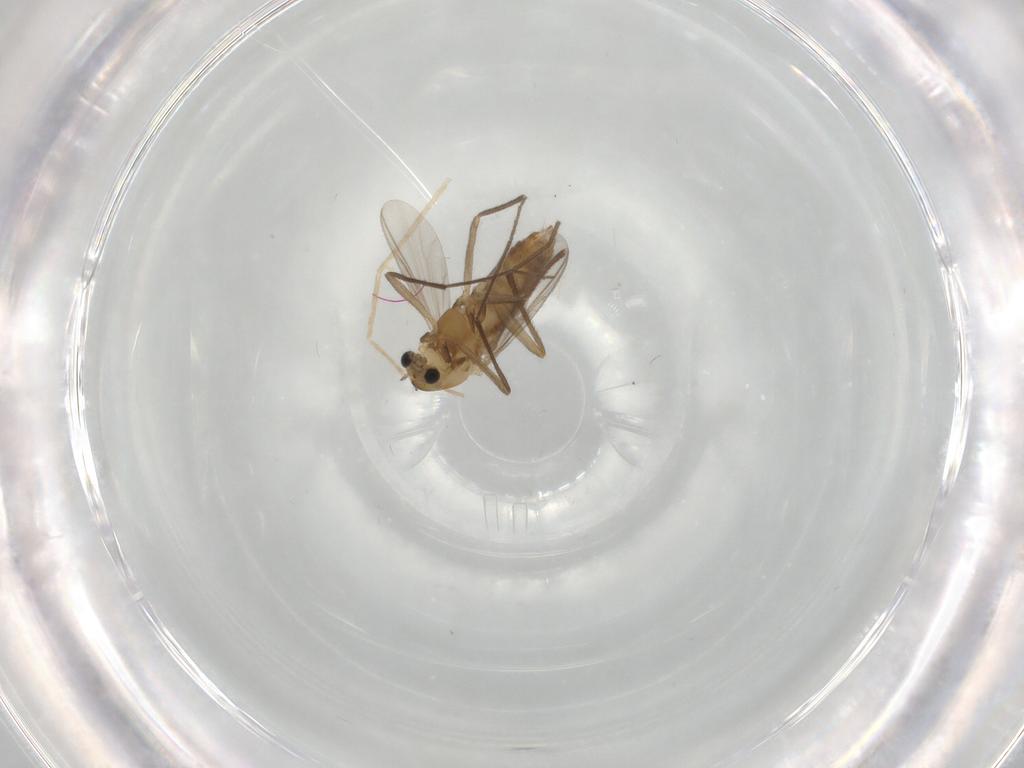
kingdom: Animalia
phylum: Arthropoda
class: Insecta
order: Diptera
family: Chironomidae
